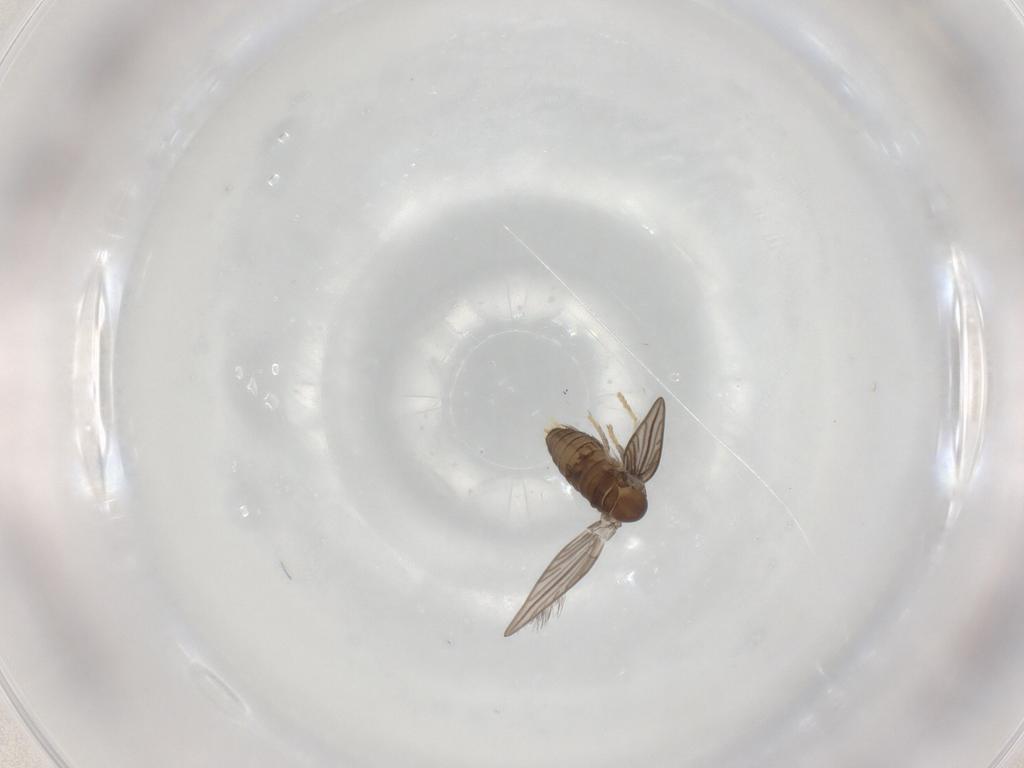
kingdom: Animalia
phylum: Arthropoda
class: Insecta
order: Diptera
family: Psychodidae
